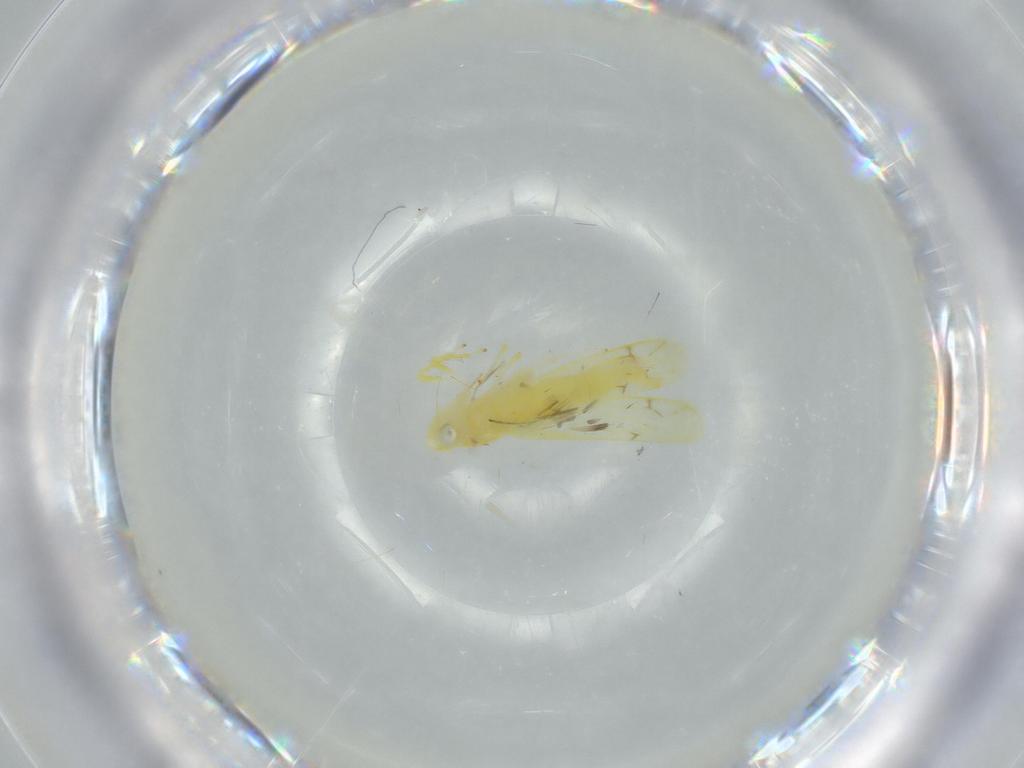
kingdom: Animalia
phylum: Arthropoda
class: Insecta
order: Hemiptera
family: Cicadellidae
